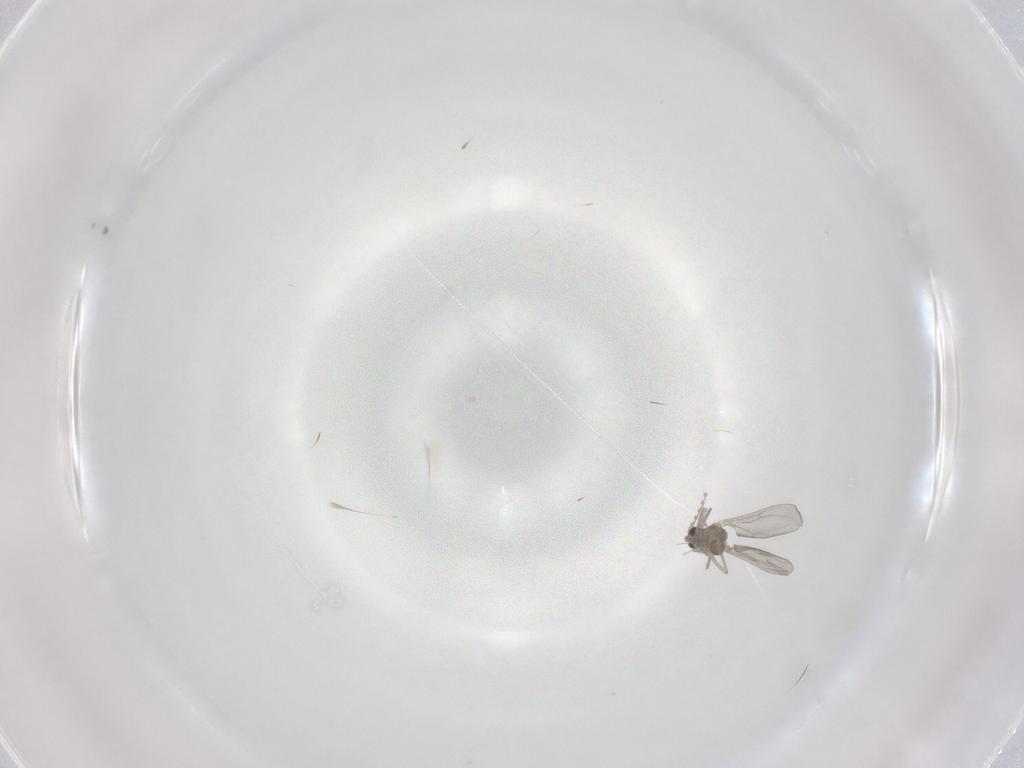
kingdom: Animalia
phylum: Arthropoda
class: Insecta
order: Diptera
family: Cecidomyiidae
